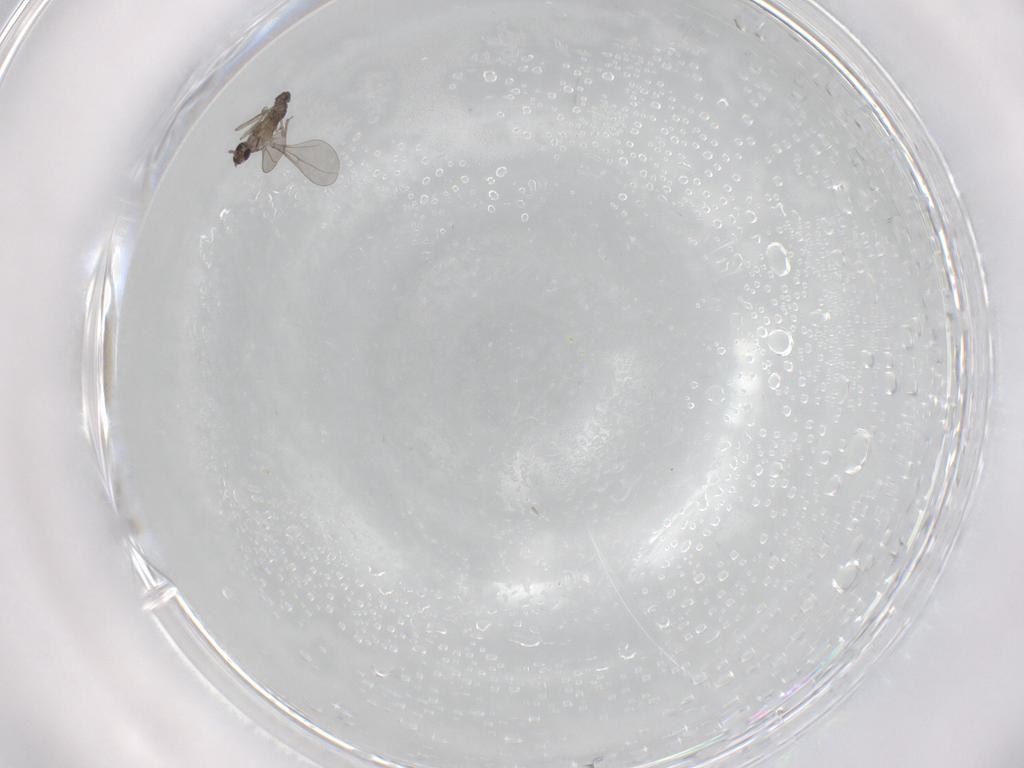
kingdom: Animalia
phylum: Arthropoda
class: Insecta
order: Diptera
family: Cecidomyiidae
